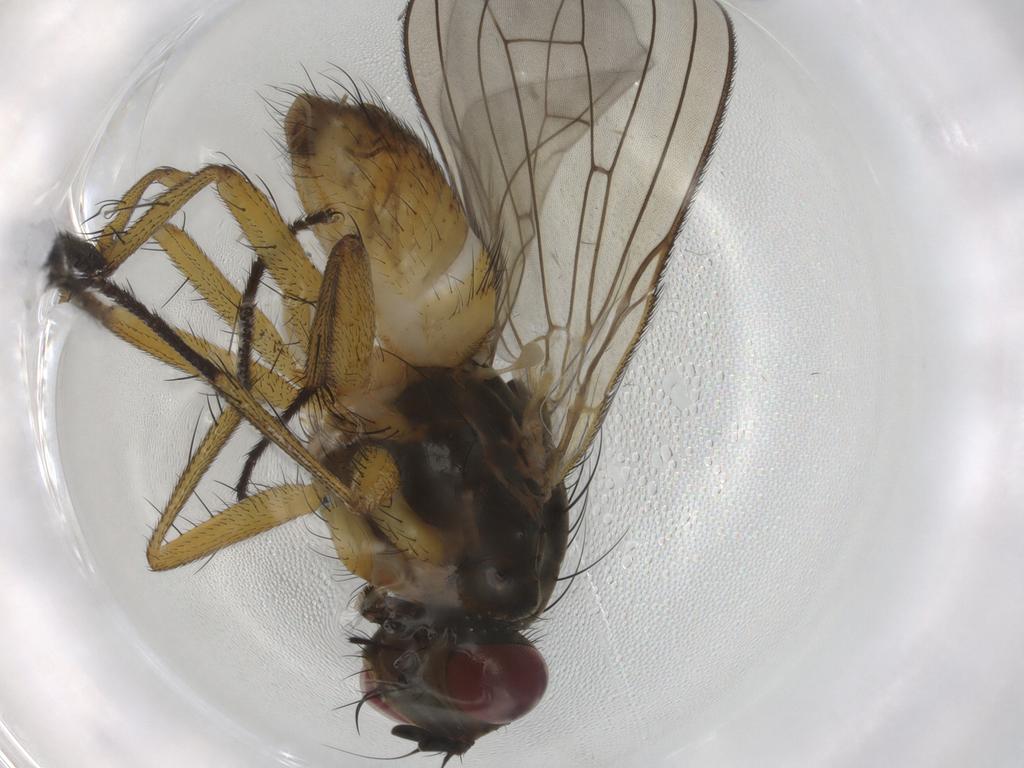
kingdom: Animalia
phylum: Arthropoda
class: Insecta
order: Diptera
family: Muscidae
